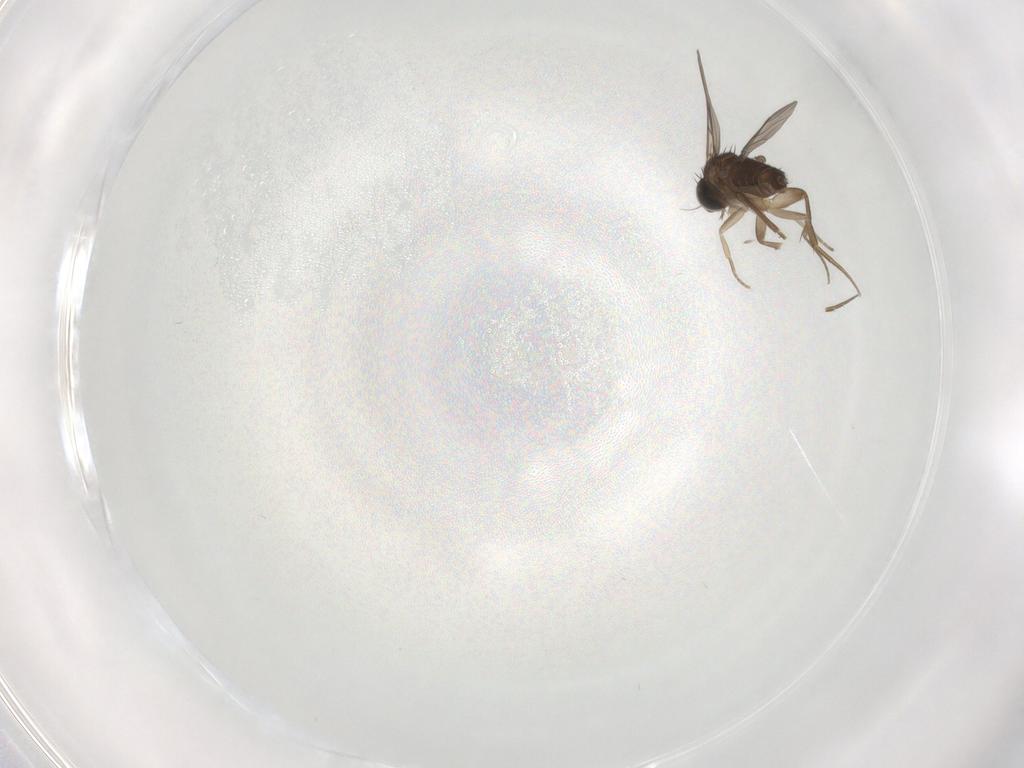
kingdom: Animalia
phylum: Arthropoda
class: Insecta
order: Diptera
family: Phoridae
